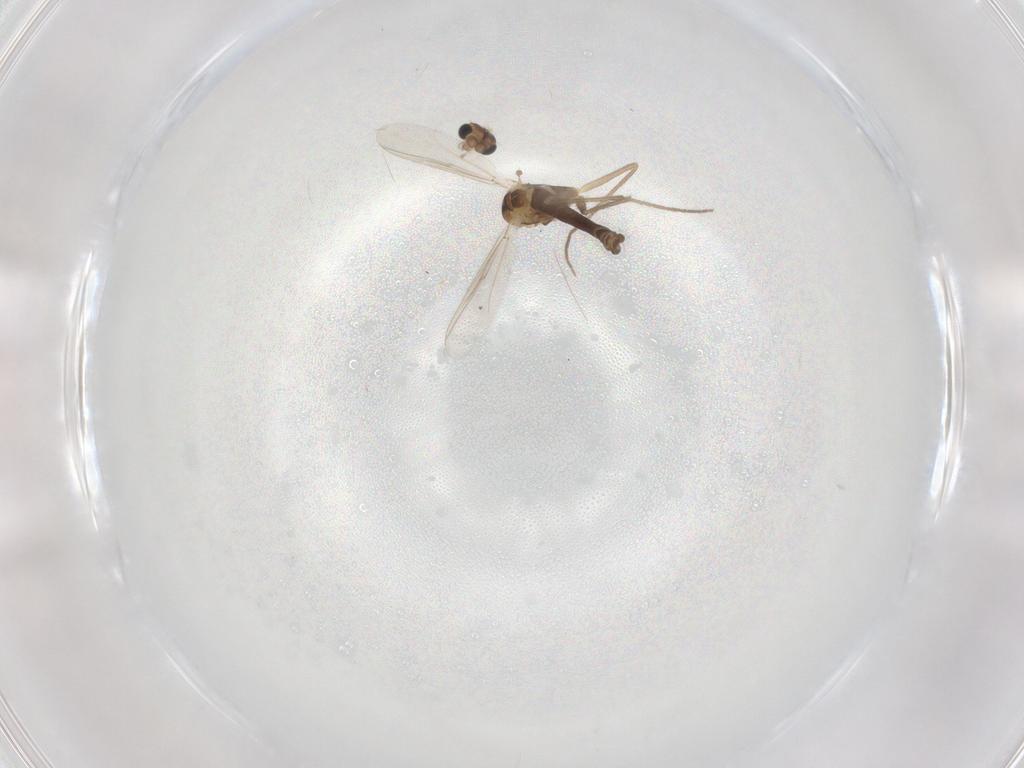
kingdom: Animalia
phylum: Arthropoda
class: Insecta
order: Diptera
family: Chironomidae
